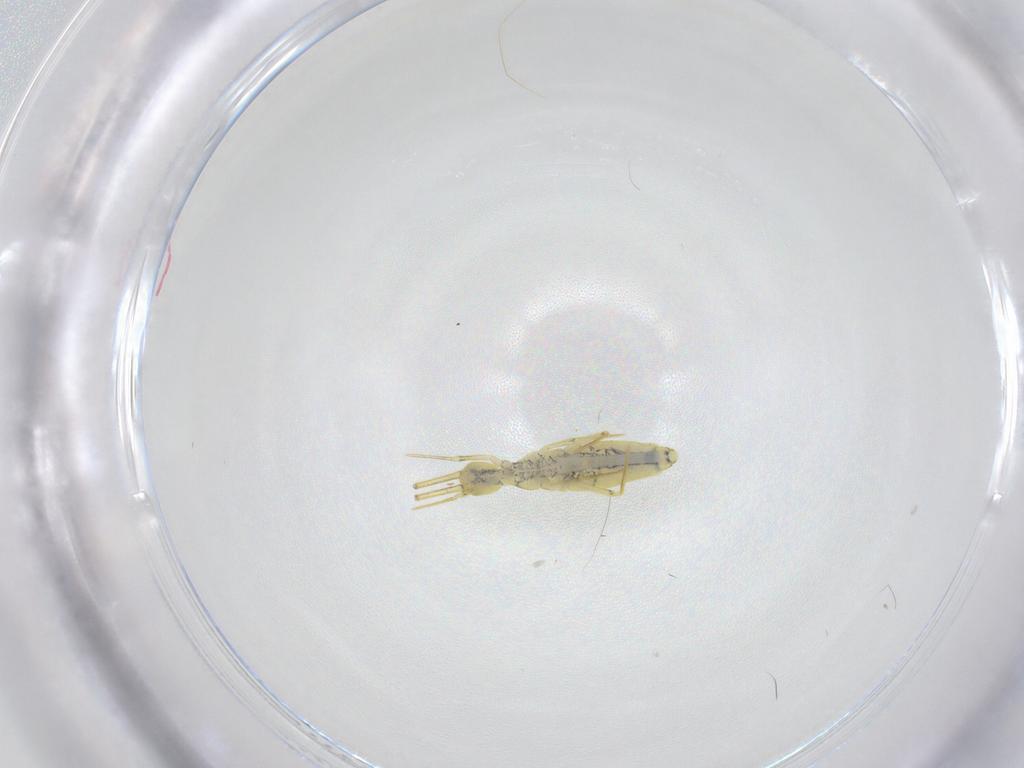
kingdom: Animalia
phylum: Arthropoda
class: Collembola
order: Entomobryomorpha
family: Entomobryidae
